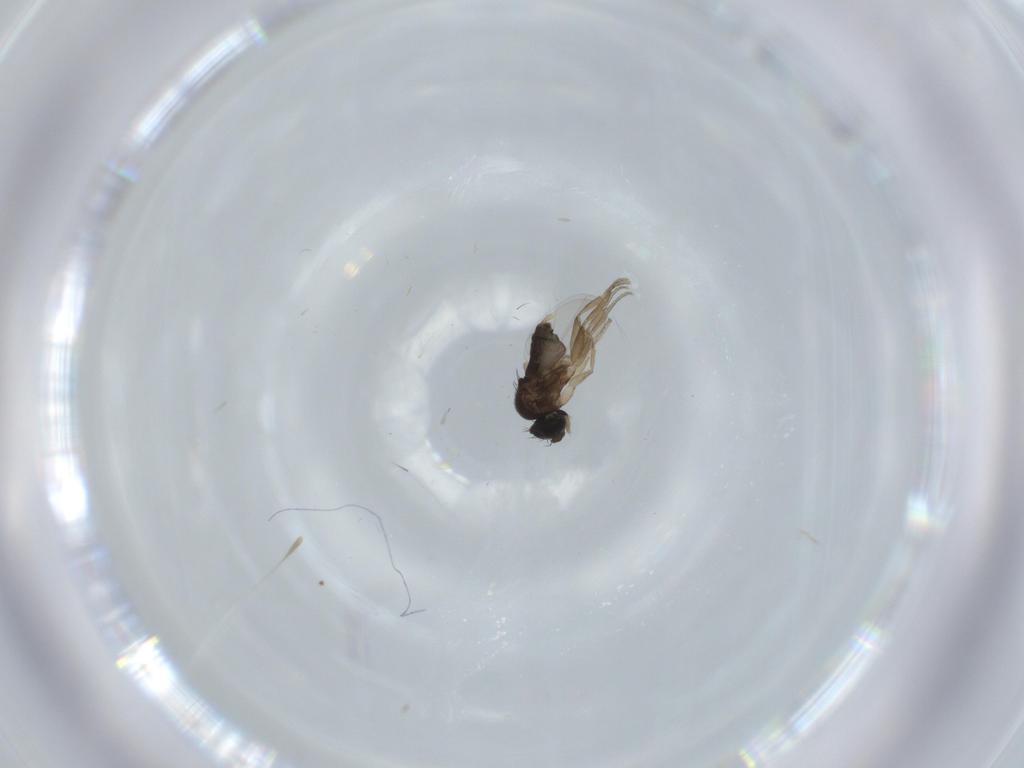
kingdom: Animalia
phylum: Arthropoda
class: Insecta
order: Diptera
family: Phoridae
